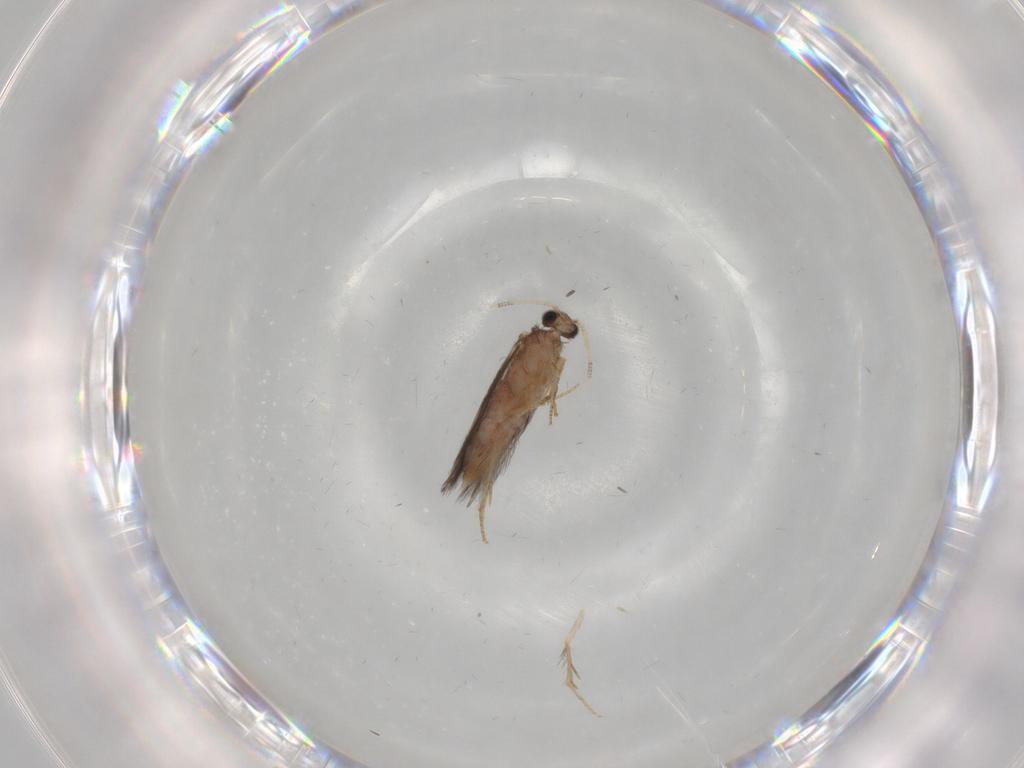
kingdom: Animalia
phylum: Arthropoda
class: Insecta
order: Trichoptera
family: Hydroptilidae
